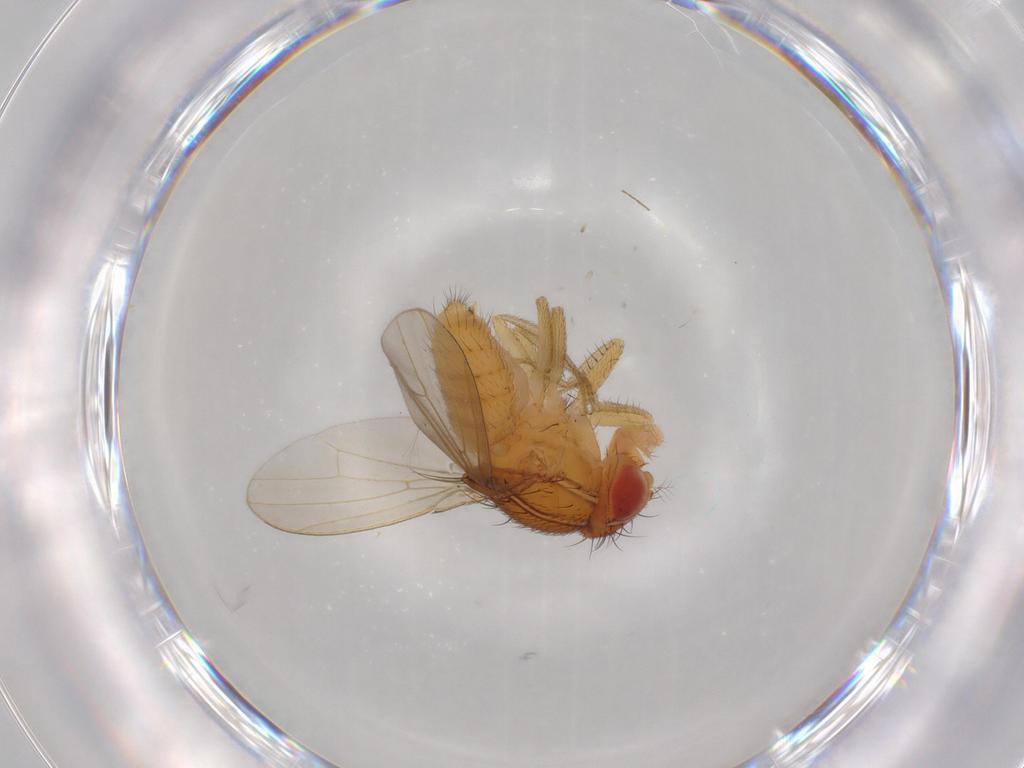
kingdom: Animalia
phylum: Arthropoda
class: Insecta
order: Diptera
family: Drosophilidae
